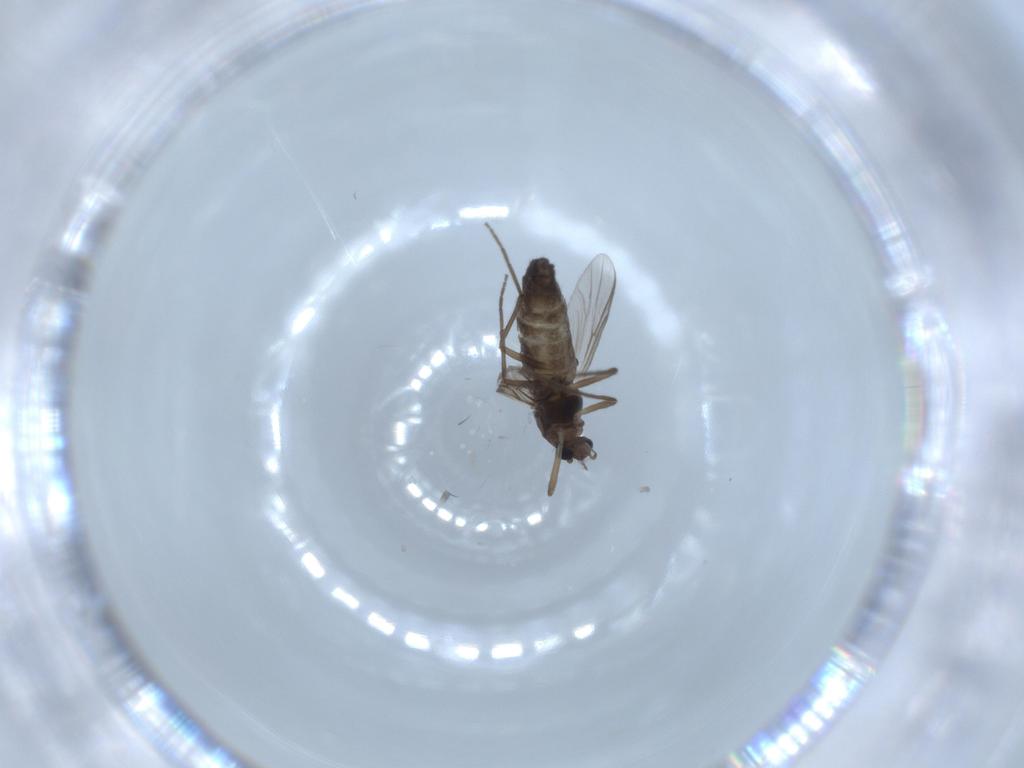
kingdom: Animalia
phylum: Arthropoda
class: Insecta
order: Diptera
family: Chironomidae
